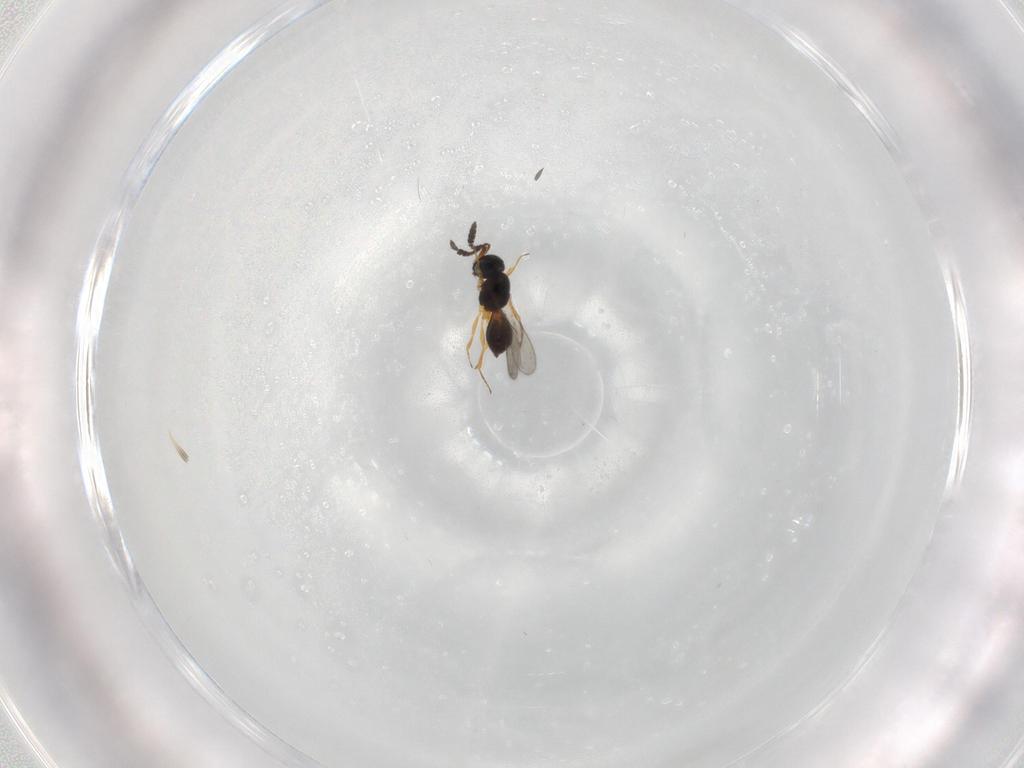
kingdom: Animalia
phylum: Arthropoda
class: Insecta
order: Hymenoptera
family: Scelionidae
